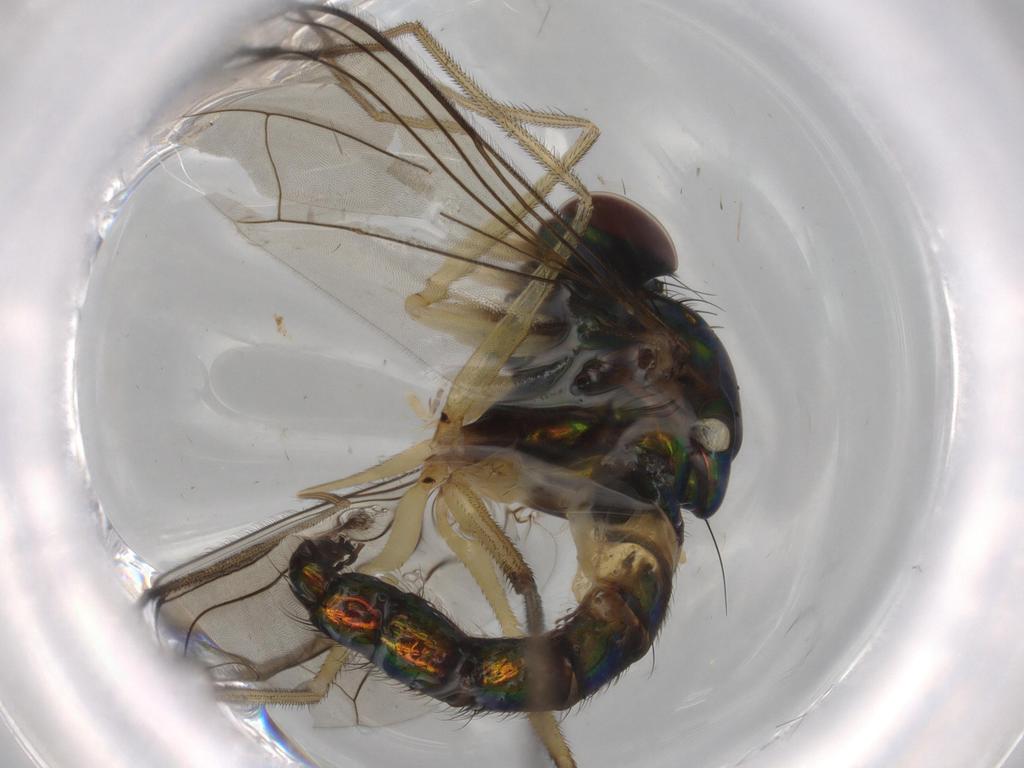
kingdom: Animalia
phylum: Arthropoda
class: Insecta
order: Diptera
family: Dolichopodidae
